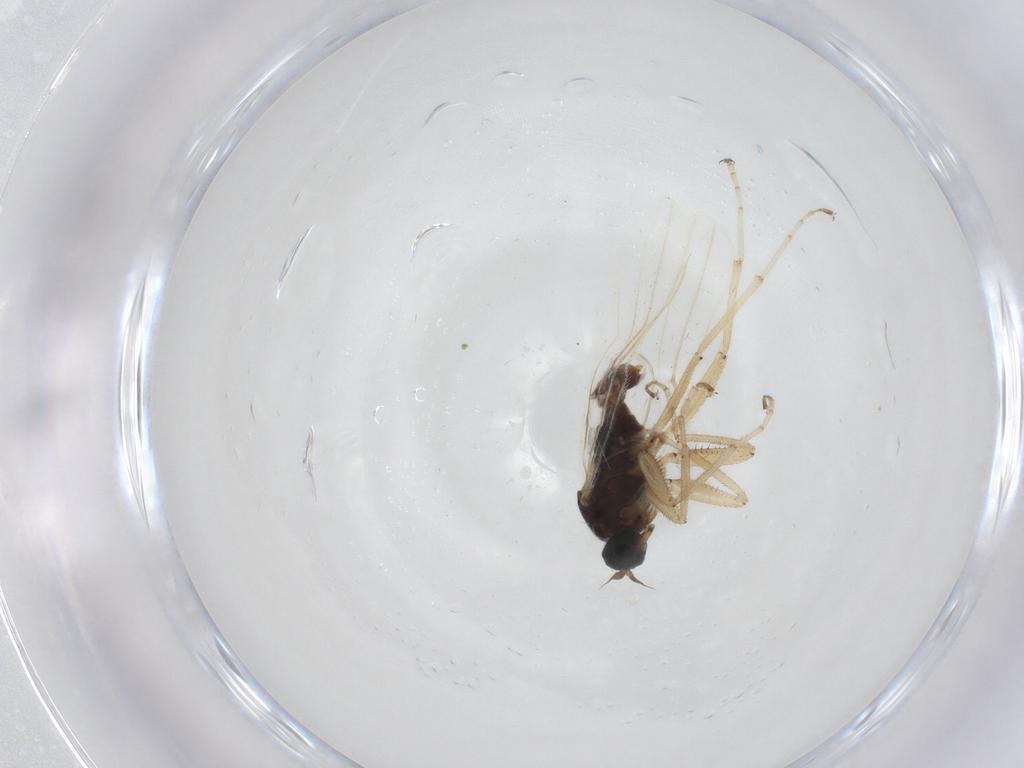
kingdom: Animalia
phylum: Arthropoda
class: Insecta
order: Diptera
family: Hybotidae
